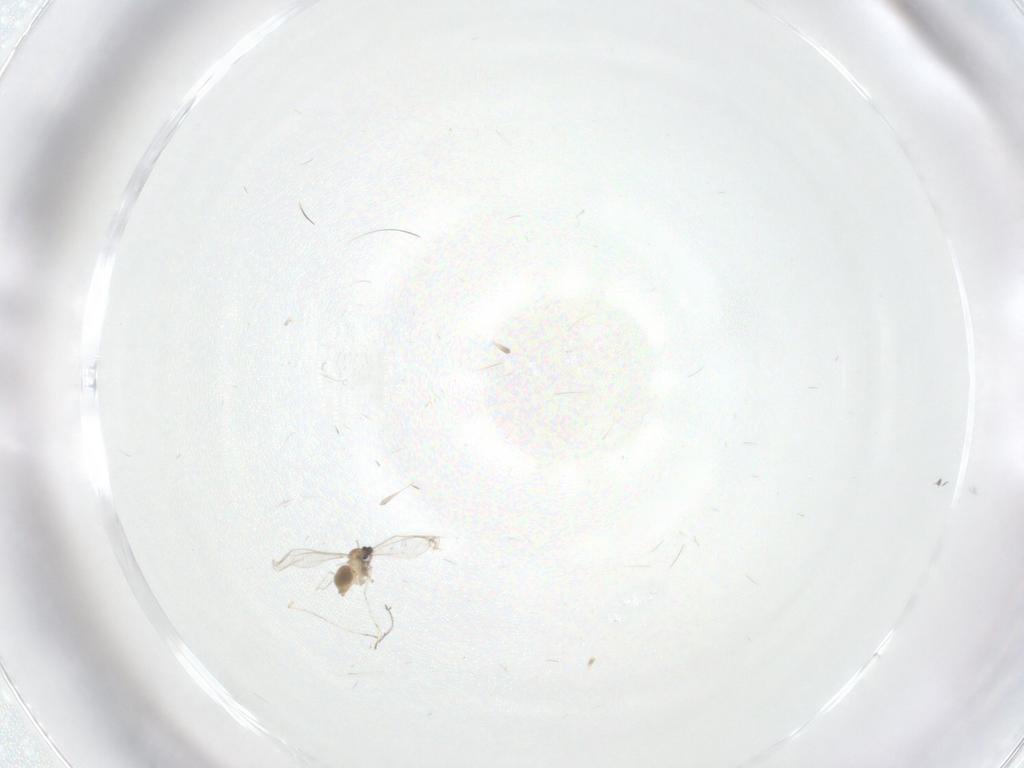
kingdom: Animalia
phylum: Arthropoda
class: Insecta
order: Diptera
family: Chironomidae
